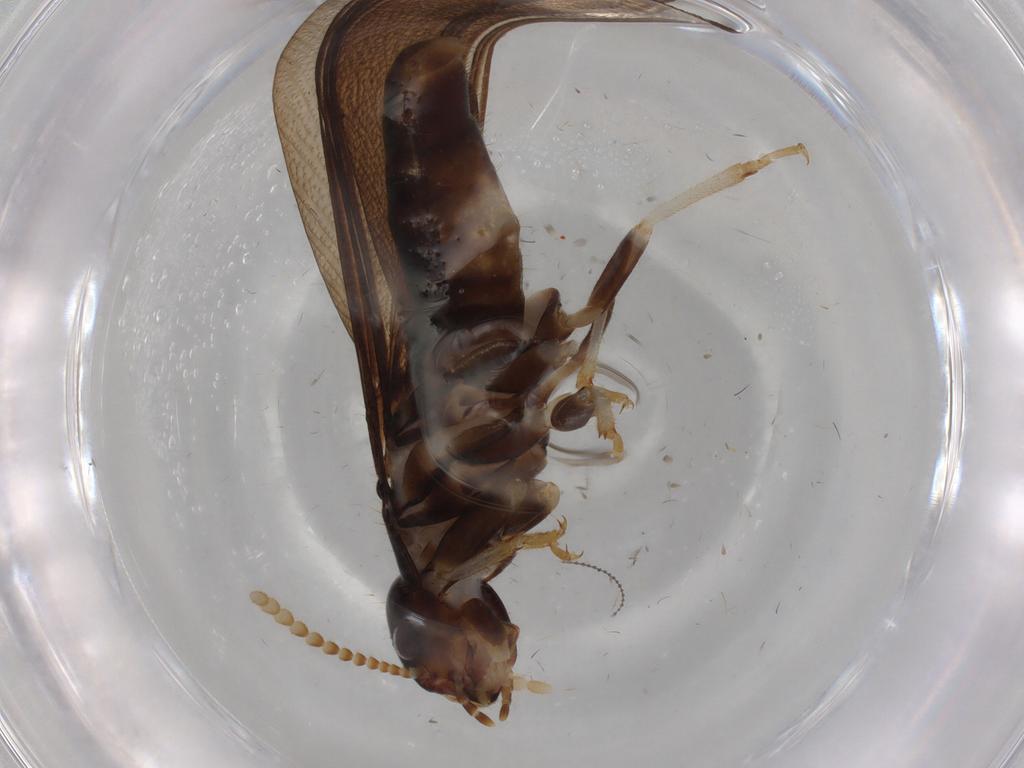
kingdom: Animalia
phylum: Arthropoda
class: Insecta
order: Blattodea
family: Kalotermitidae
